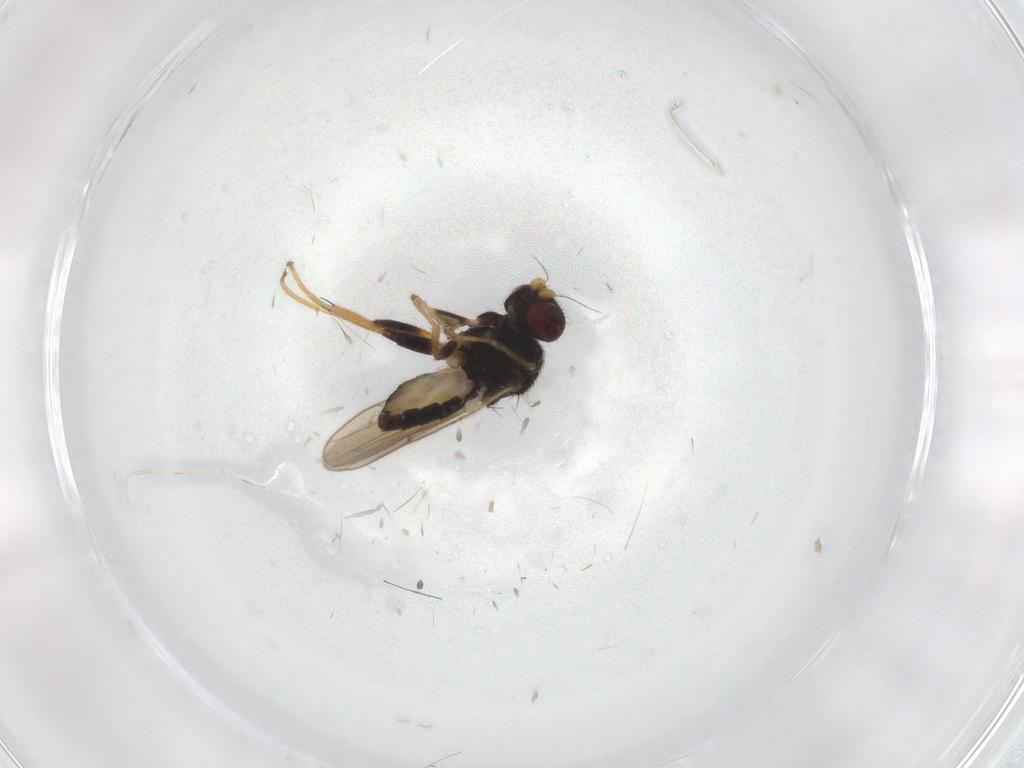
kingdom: Animalia
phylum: Arthropoda
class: Insecta
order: Diptera
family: Chloropidae
